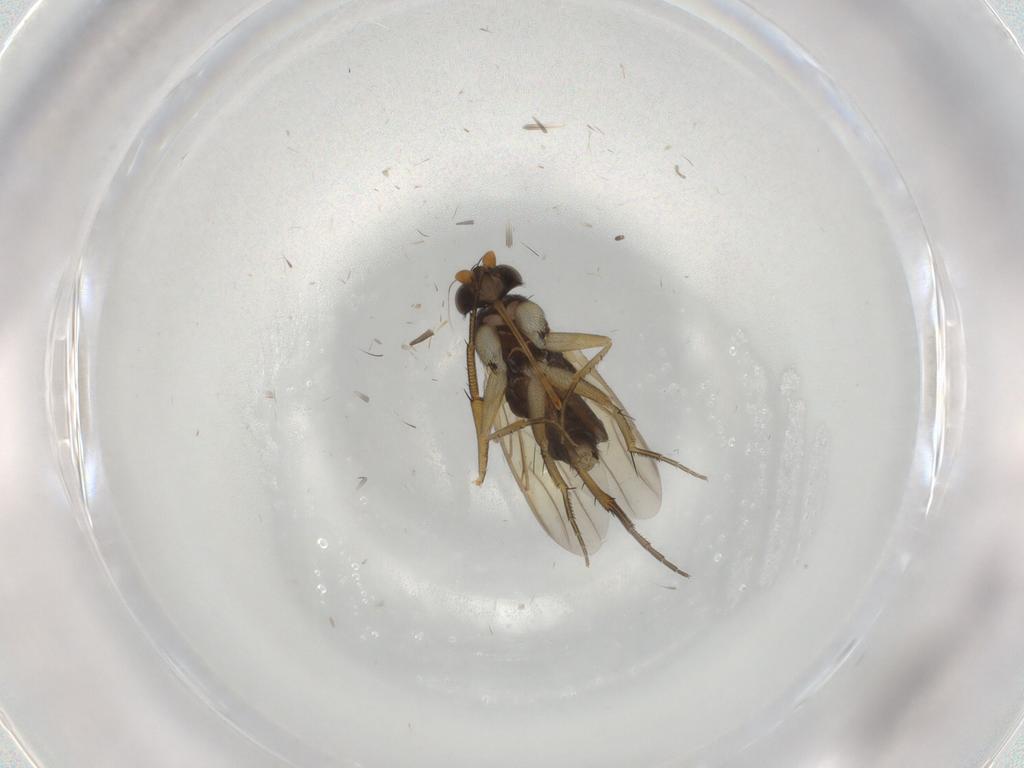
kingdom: Animalia
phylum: Arthropoda
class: Insecta
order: Diptera
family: Phoridae
